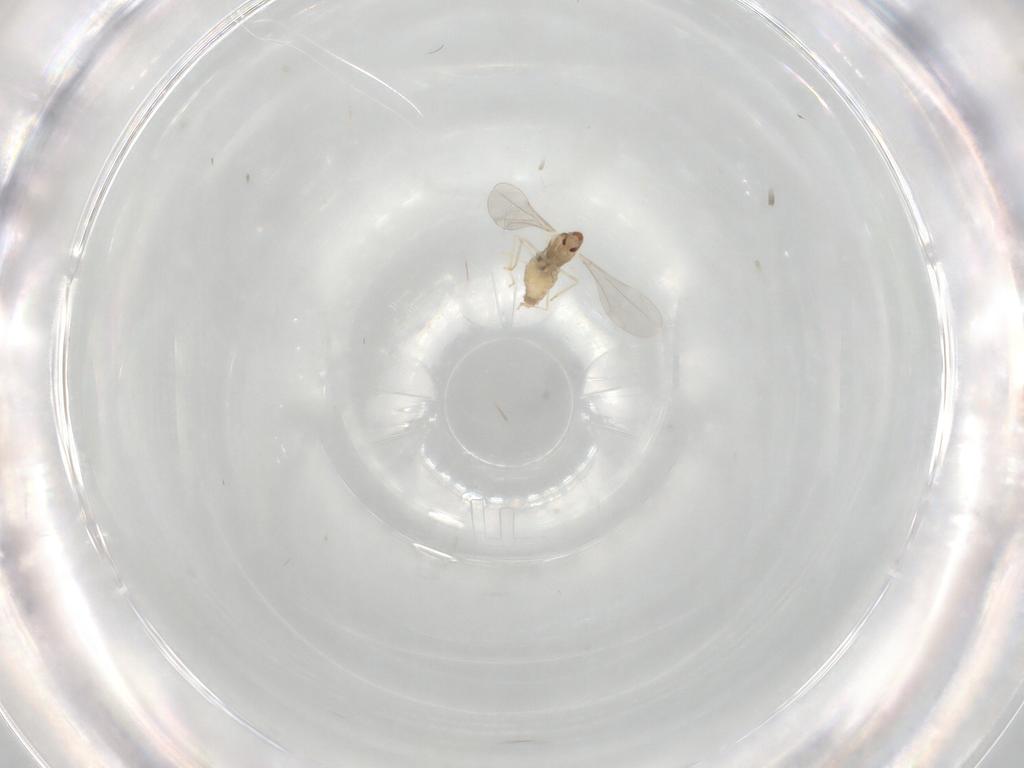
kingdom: Animalia
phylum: Arthropoda
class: Insecta
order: Diptera
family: Cecidomyiidae
